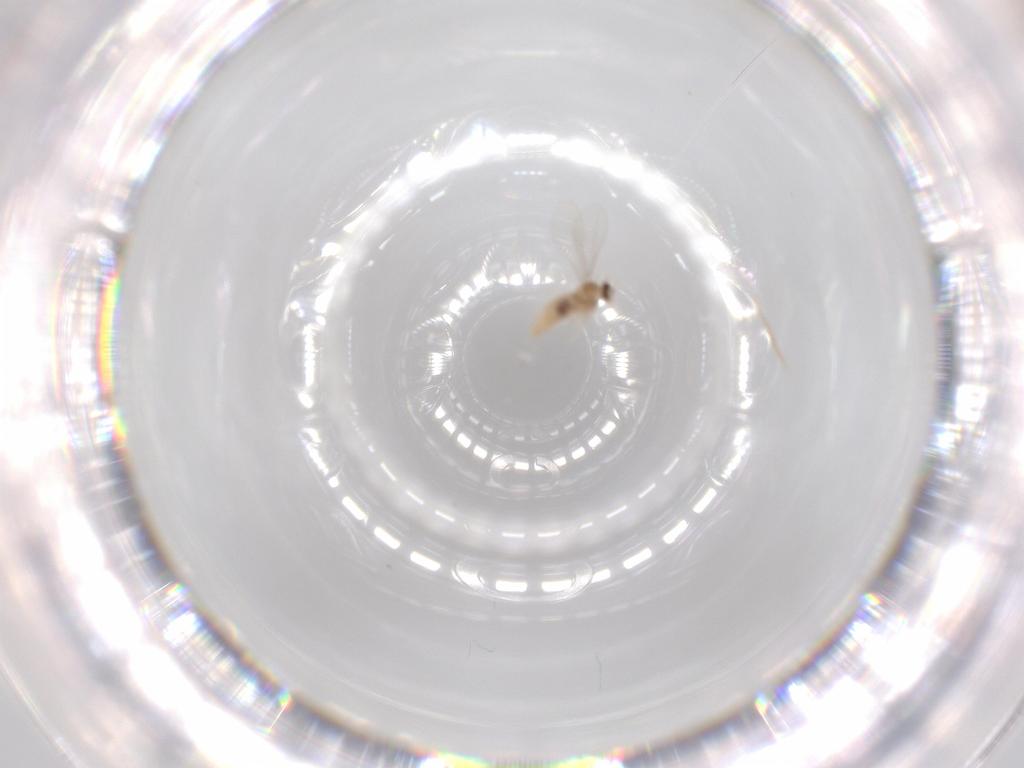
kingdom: Animalia
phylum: Arthropoda
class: Insecta
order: Diptera
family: Cecidomyiidae
